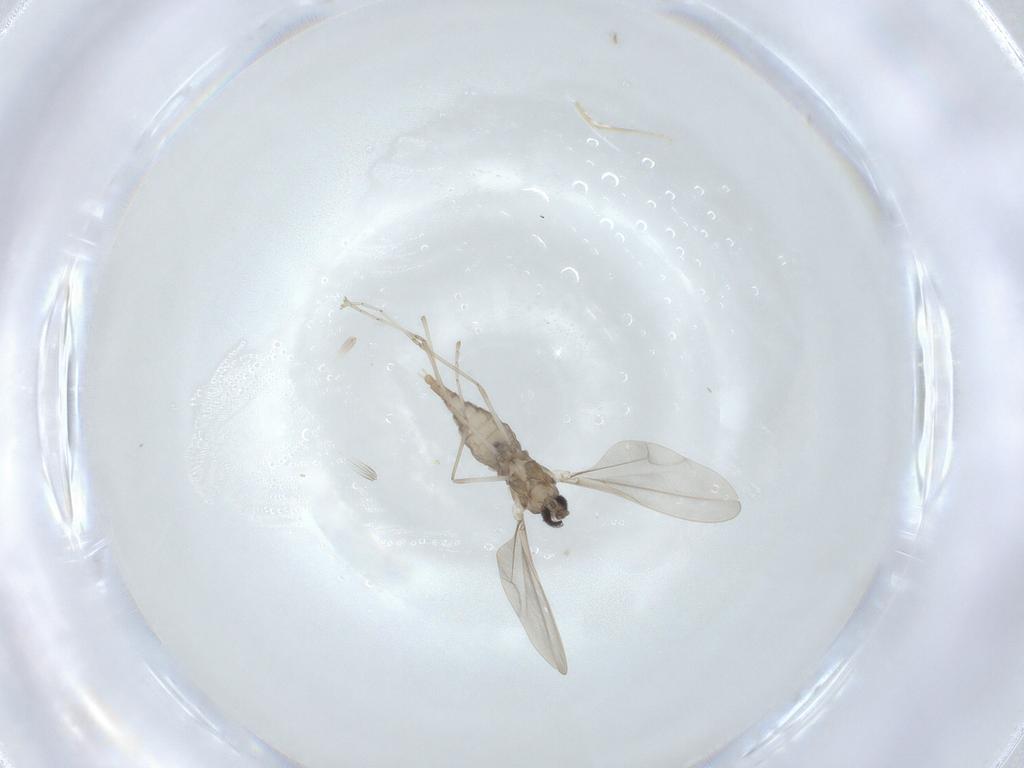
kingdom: Animalia
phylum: Arthropoda
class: Insecta
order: Diptera
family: Cecidomyiidae
